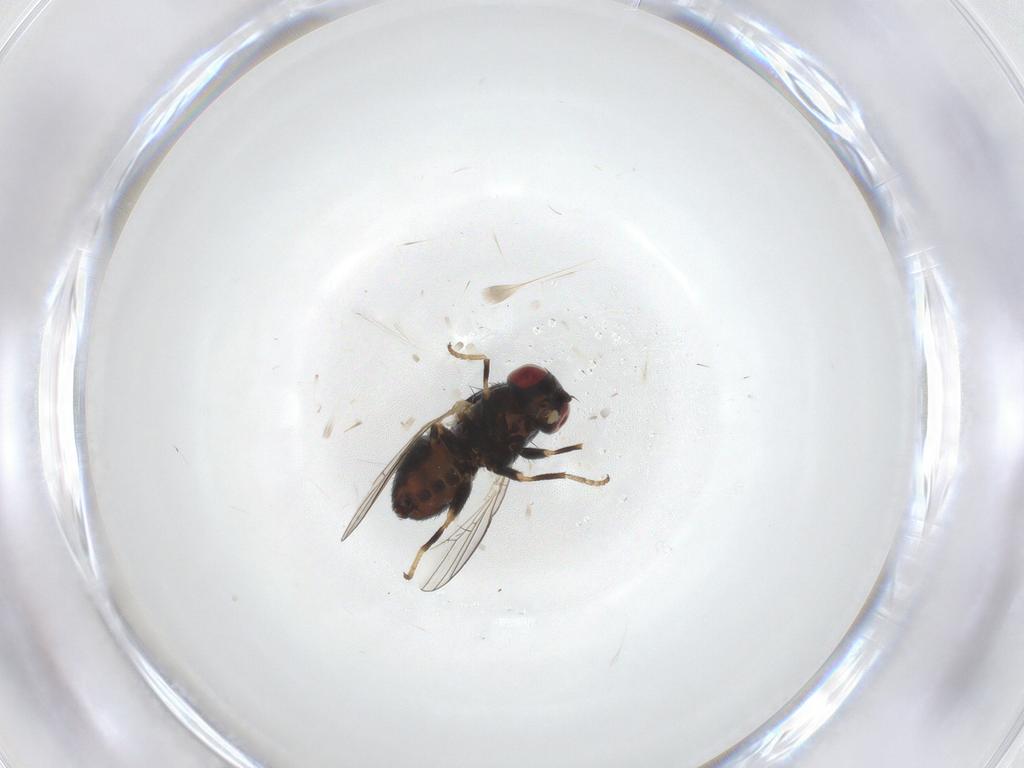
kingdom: Animalia
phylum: Arthropoda
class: Insecta
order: Diptera
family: Chamaemyiidae
